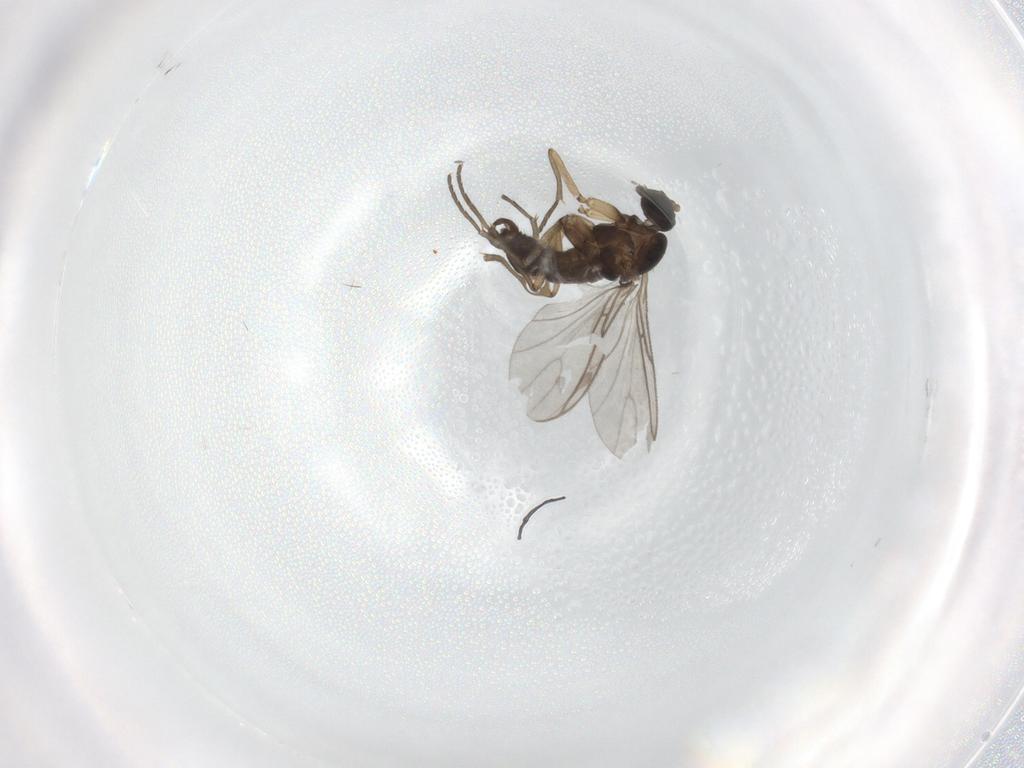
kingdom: Animalia
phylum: Arthropoda
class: Insecta
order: Diptera
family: Sciaridae
